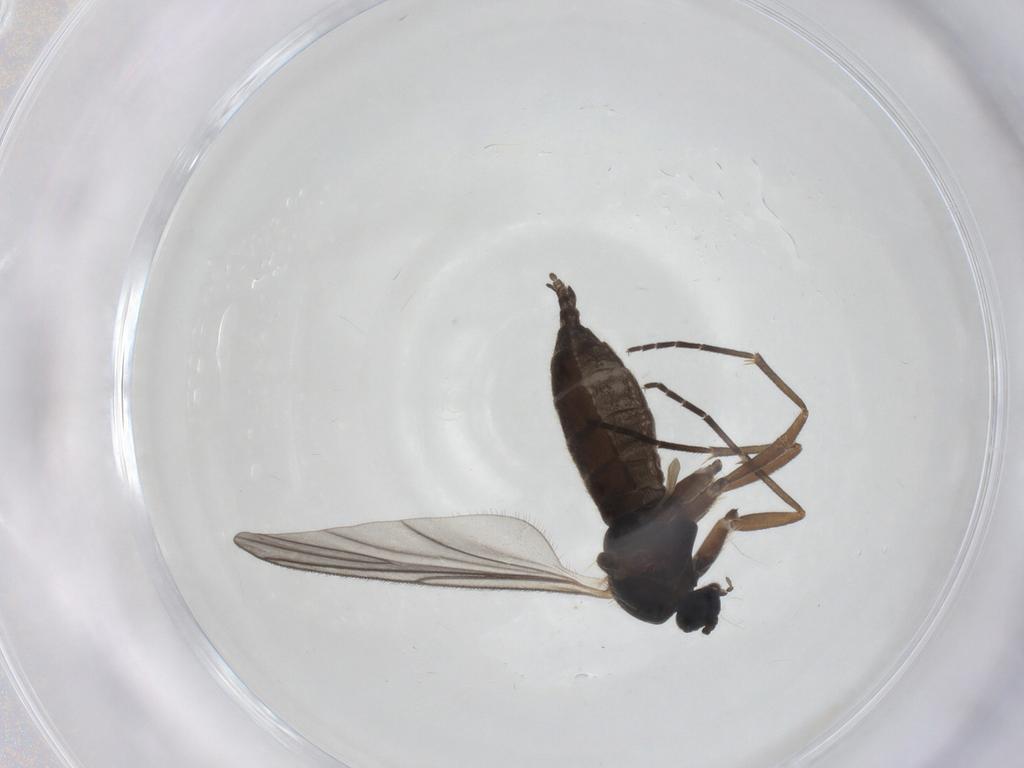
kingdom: Animalia
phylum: Arthropoda
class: Insecta
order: Diptera
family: Sciaridae
